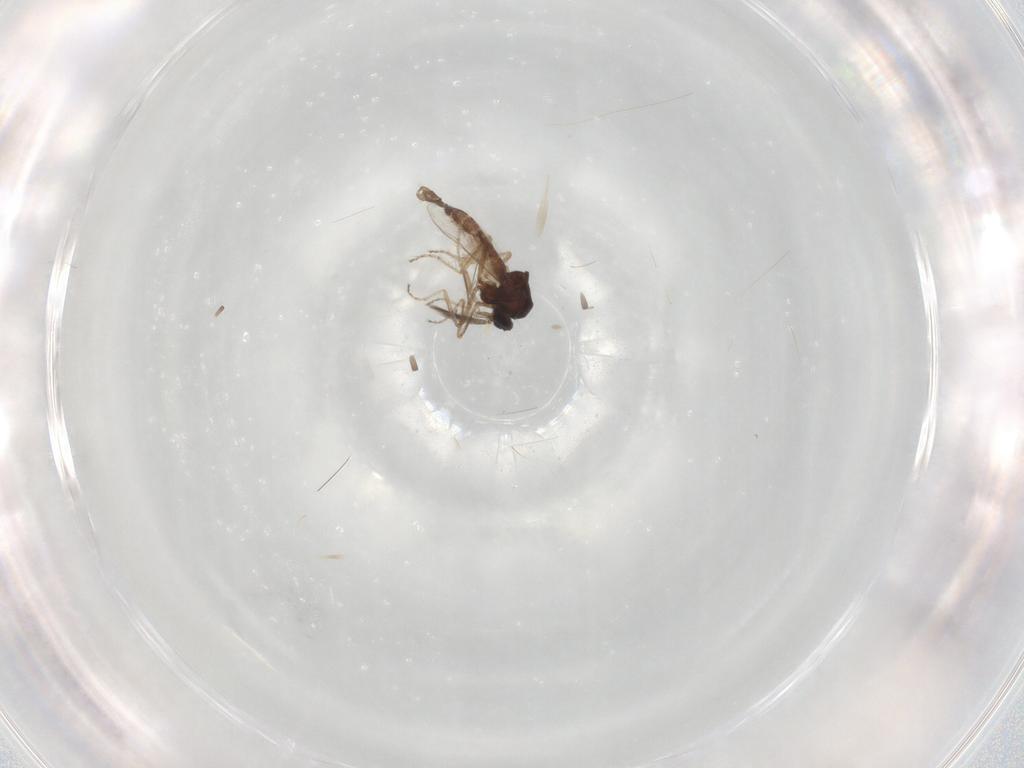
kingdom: Animalia
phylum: Arthropoda
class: Insecta
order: Diptera
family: Ceratopogonidae
